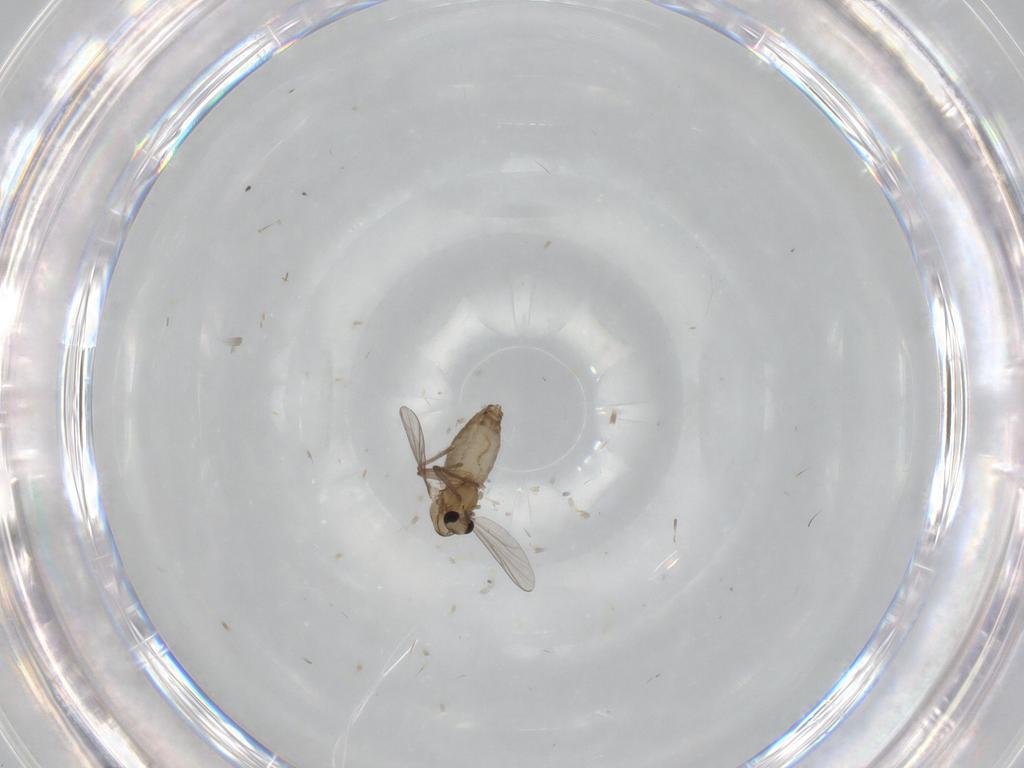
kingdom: Animalia
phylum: Arthropoda
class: Insecta
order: Diptera
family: Chironomidae
